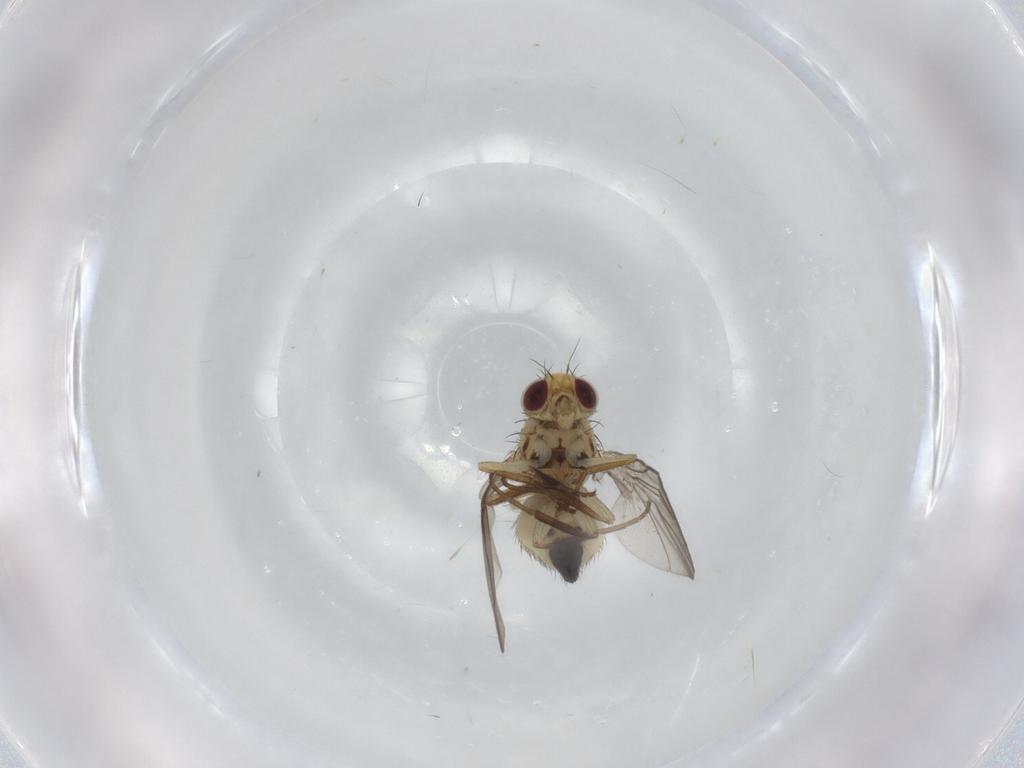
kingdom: Animalia
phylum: Arthropoda
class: Insecta
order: Diptera
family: Agromyzidae
